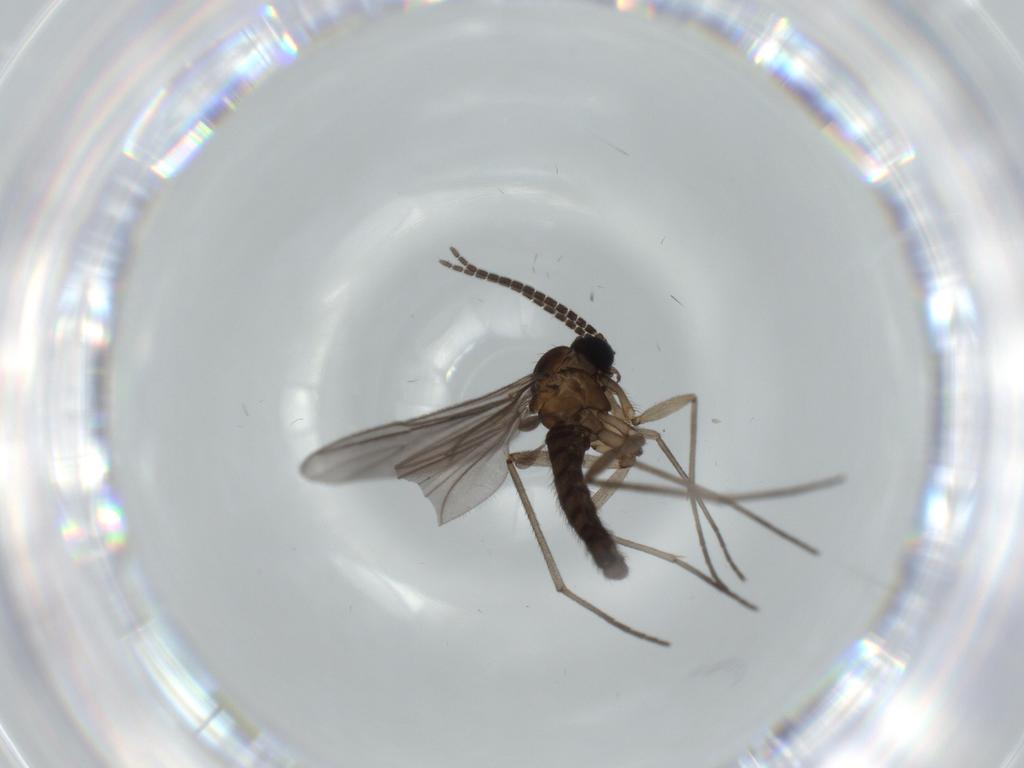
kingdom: Animalia
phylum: Arthropoda
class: Insecta
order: Diptera
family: Sciaridae
